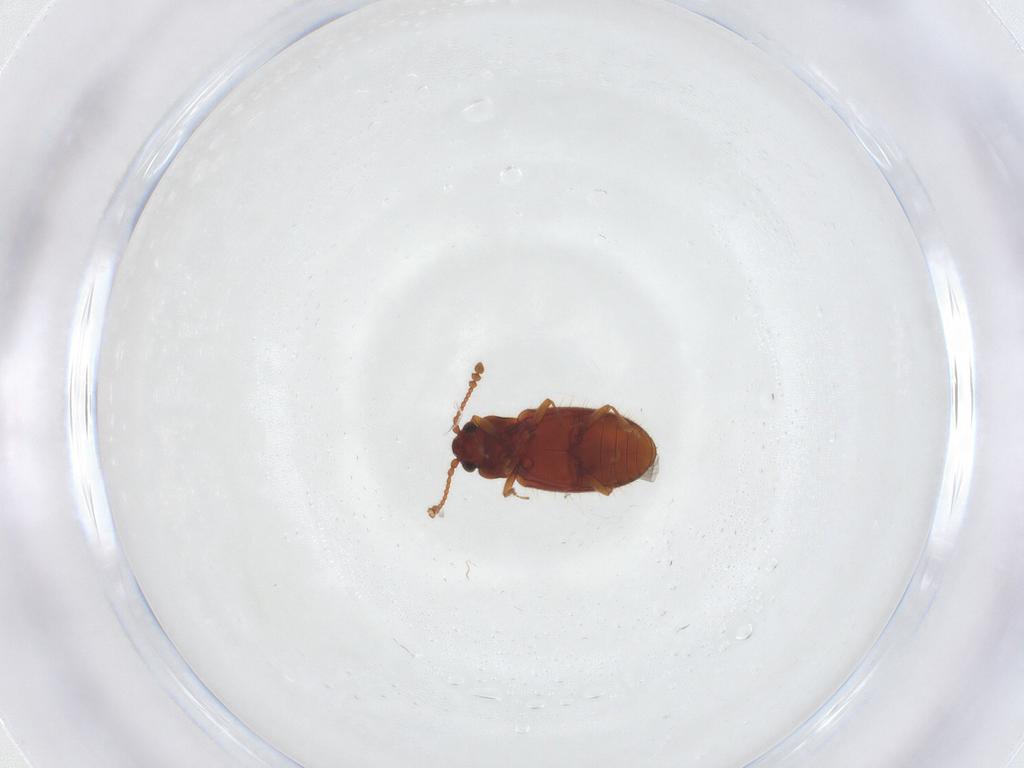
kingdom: Animalia
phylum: Arthropoda
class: Insecta
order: Coleoptera
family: Cryptophagidae
